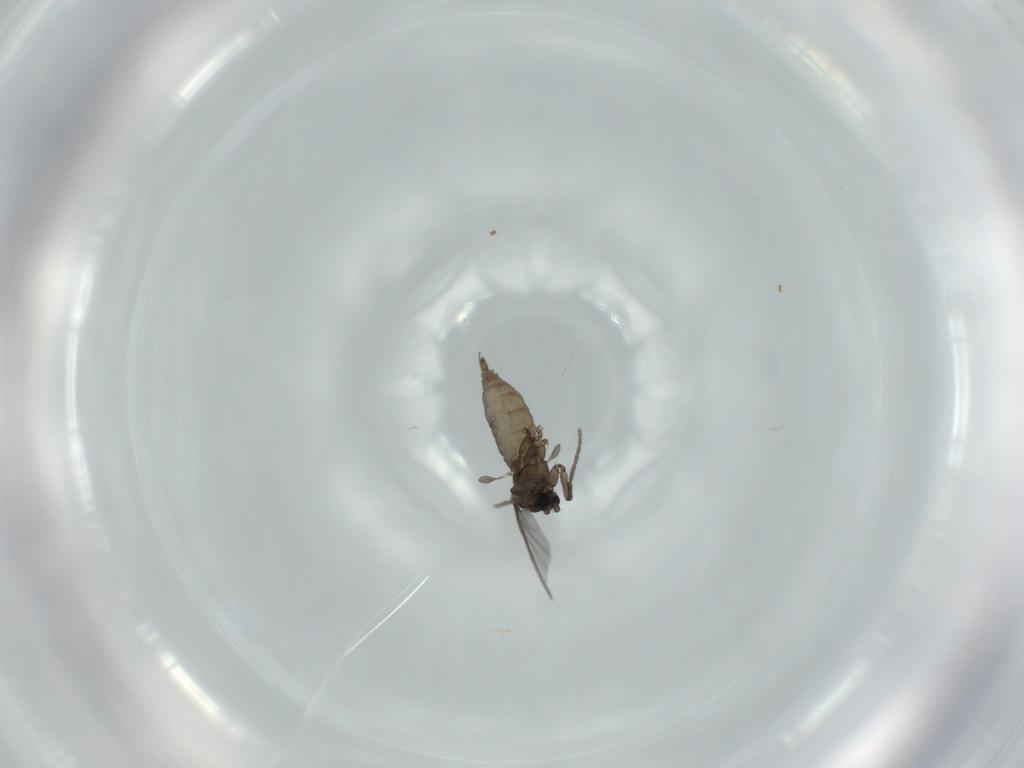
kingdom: Animalia
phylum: Arthropoda
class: Insecta
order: Diptera
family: Sciaridae
